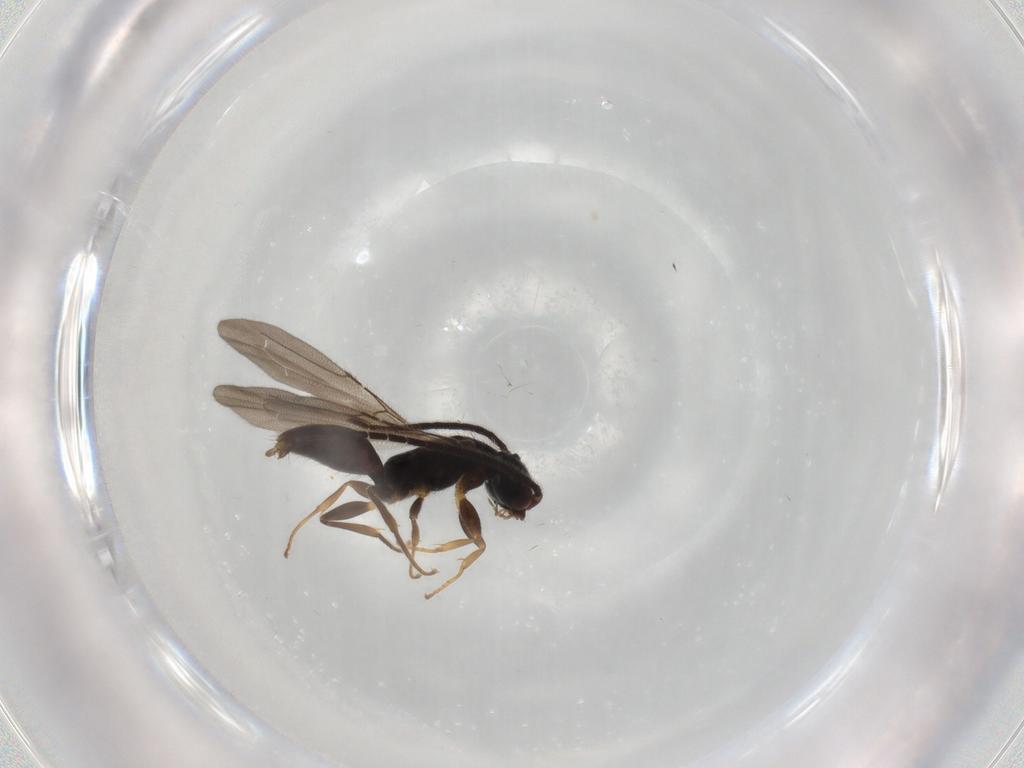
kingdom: Animalia
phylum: Arthropoda
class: Insecta
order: Hymenoptera
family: Bethylidae
